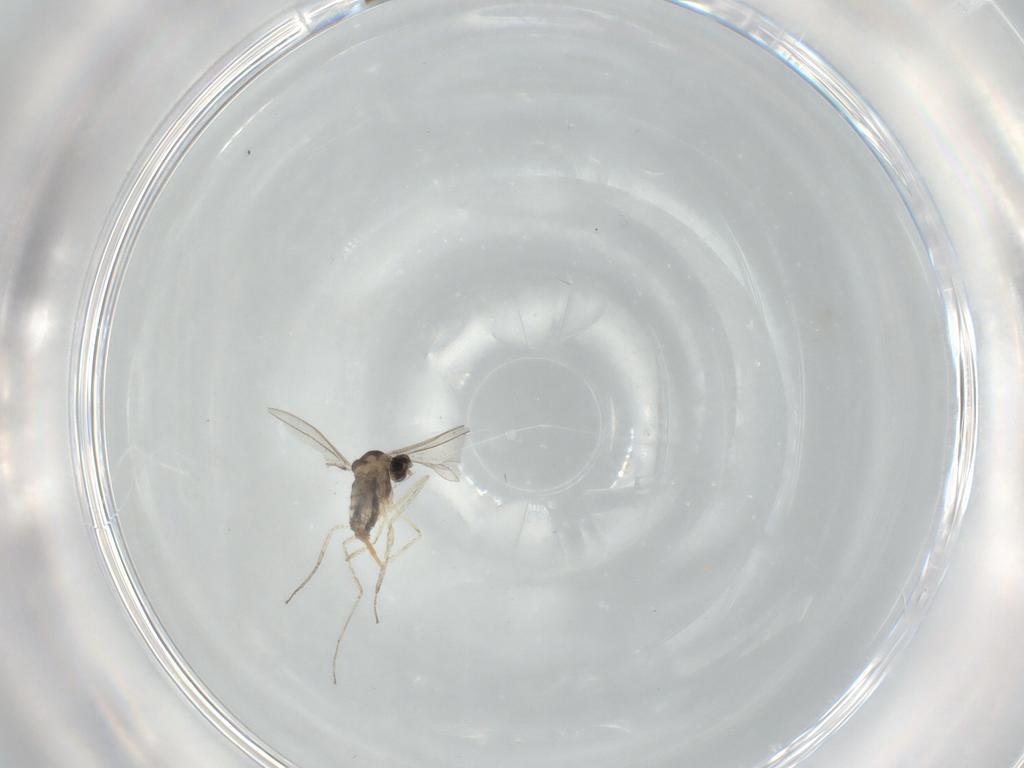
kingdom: Animalia
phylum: Arthropoda
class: Insecta
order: Diptera
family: Cecidomyiidae
